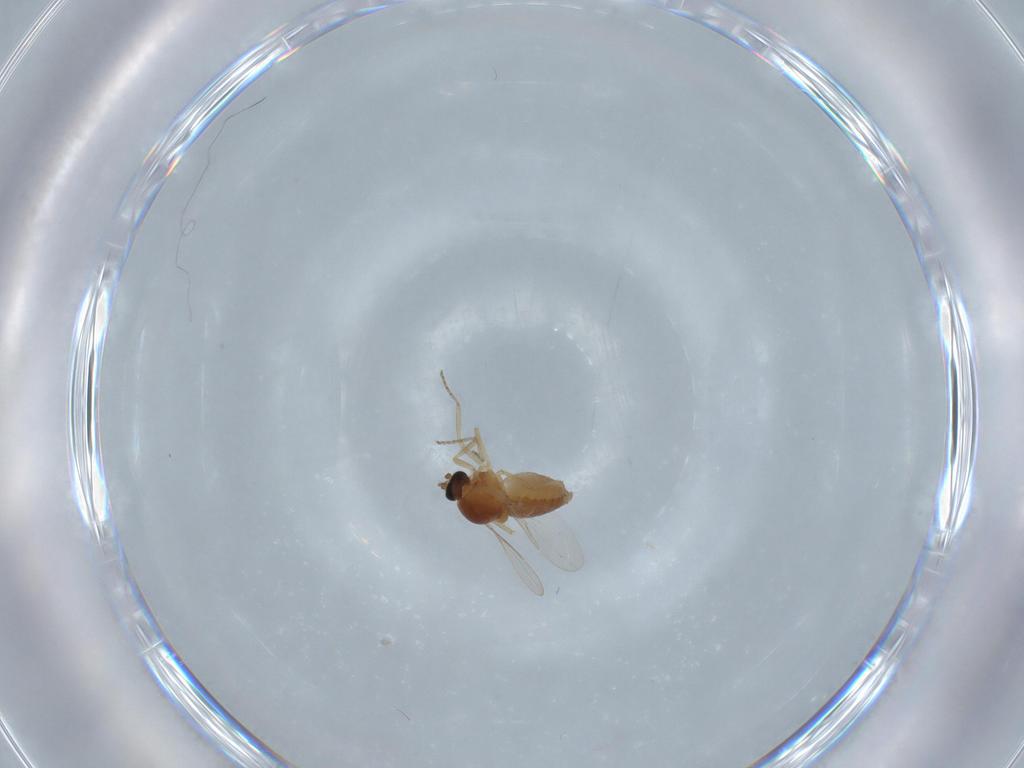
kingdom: Animalia
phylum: Arthropoda
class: Insecta
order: Diptera
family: Ceratopogonidae
